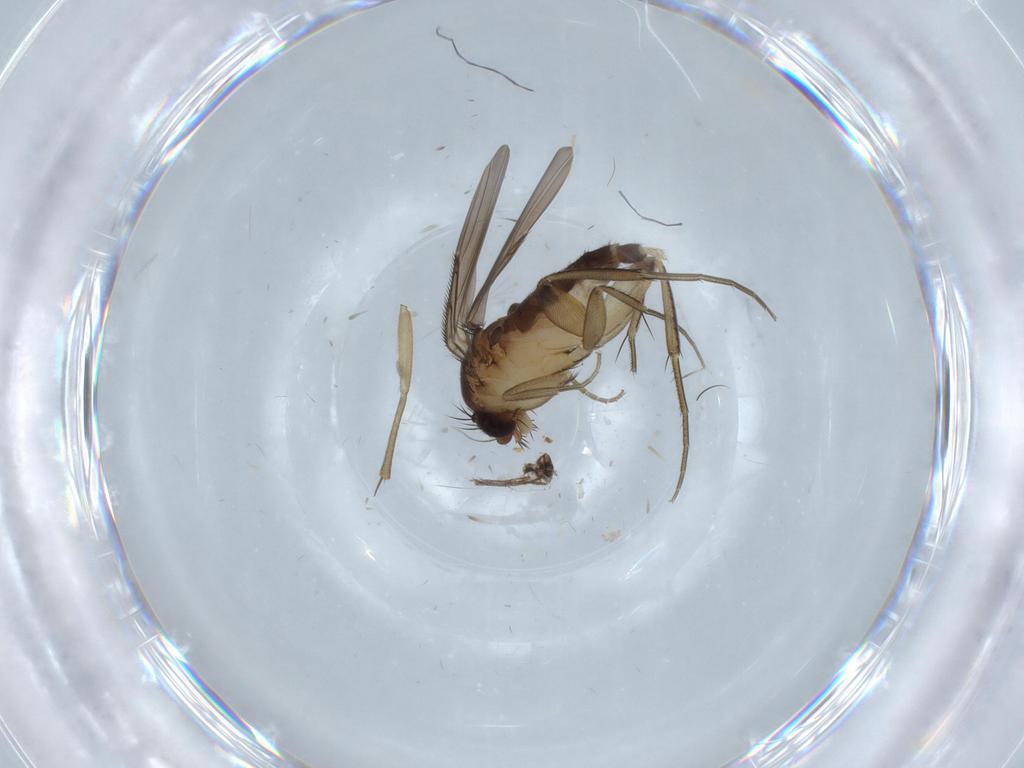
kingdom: Animalia
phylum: Arthropoda
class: Insecta
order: Diptera
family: Phoridae
